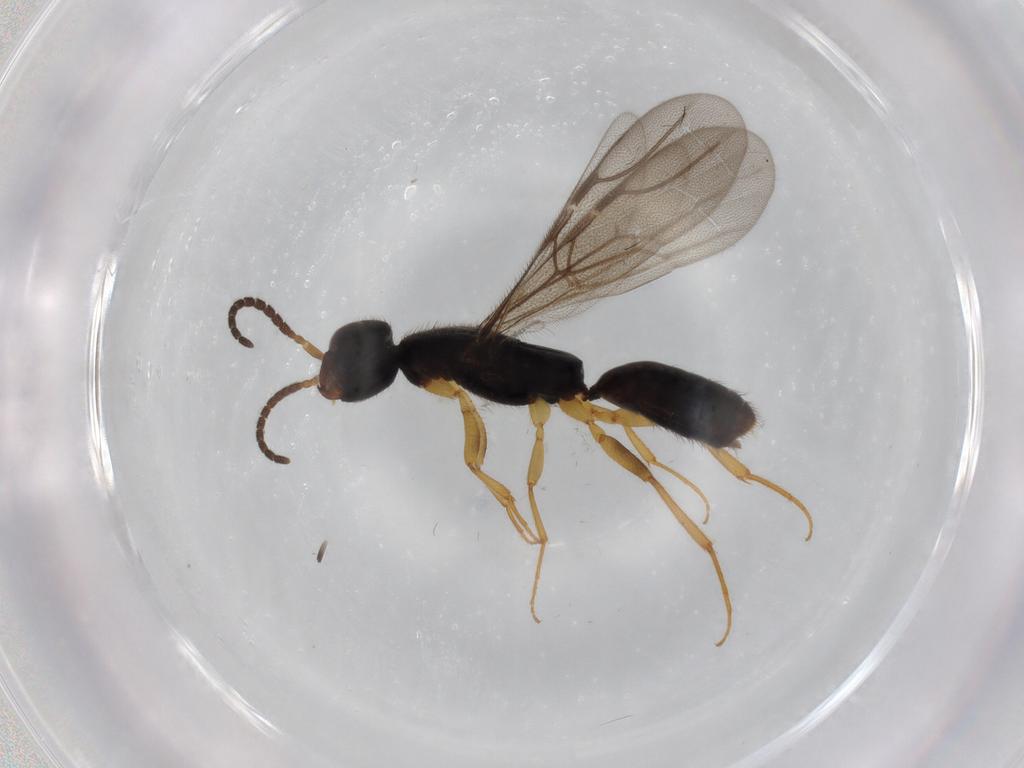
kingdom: Animalia
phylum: Arthropoda
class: Insecta
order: Hymenoptera
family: Formicidae
